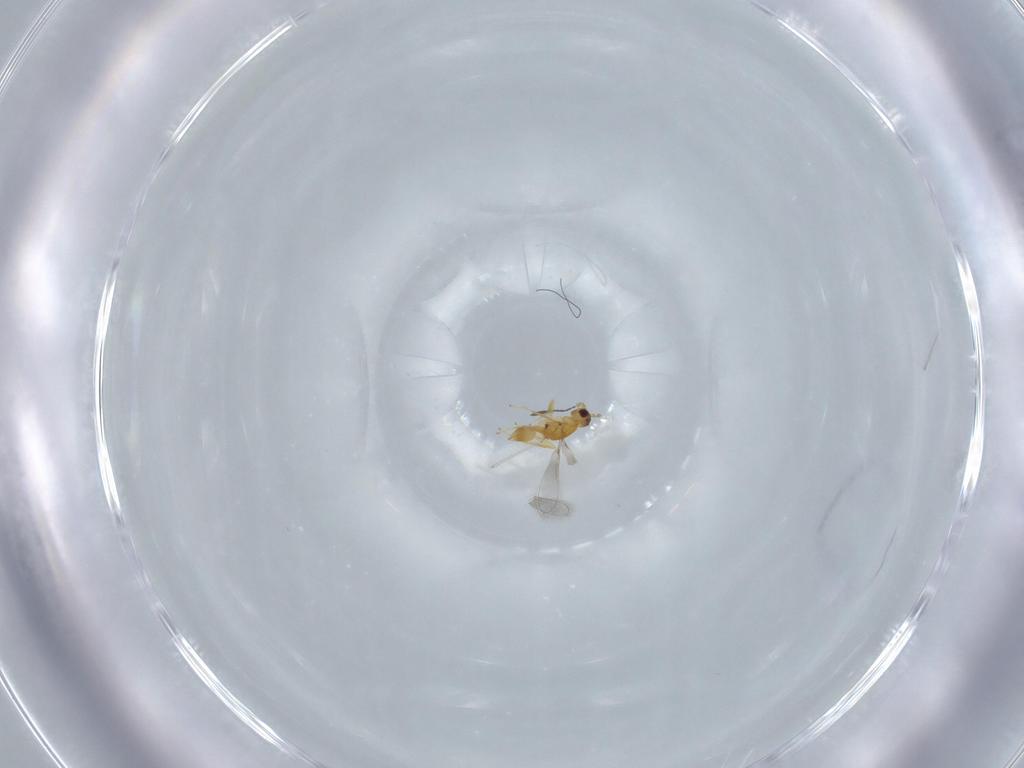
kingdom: Animalia
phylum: Arthropoda
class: Insecta
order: Hymenoptera
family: Mymaridae
